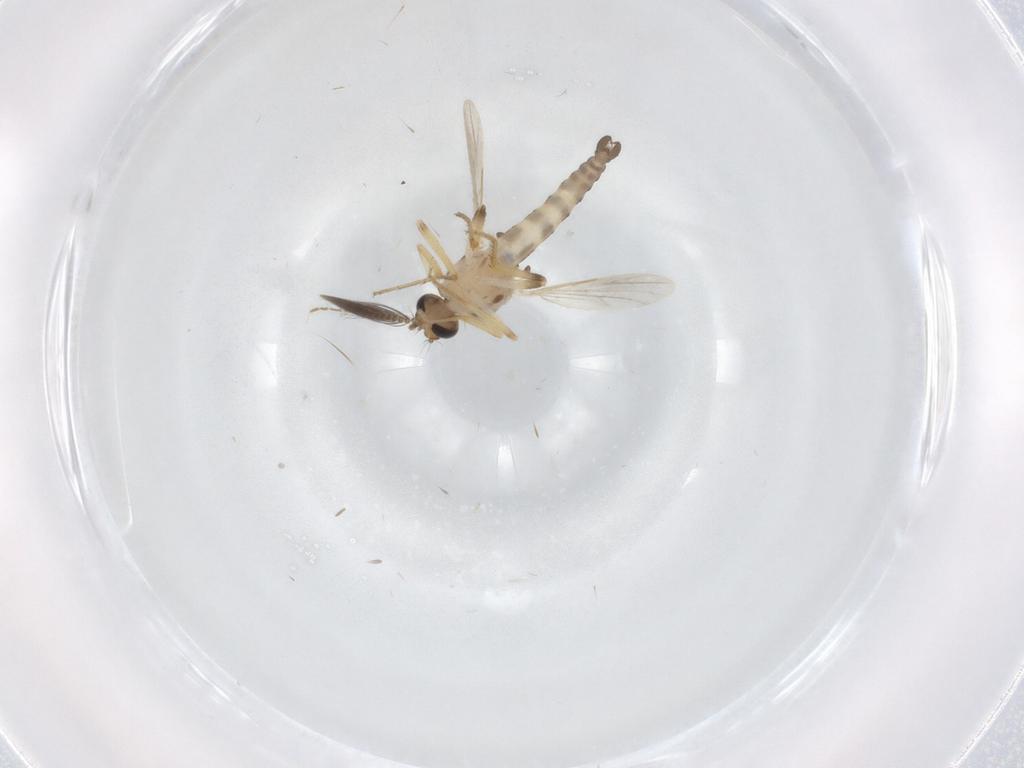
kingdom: Animalia
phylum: Arthropoda
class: Insecta
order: Diptera
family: Ceratopogonidae
